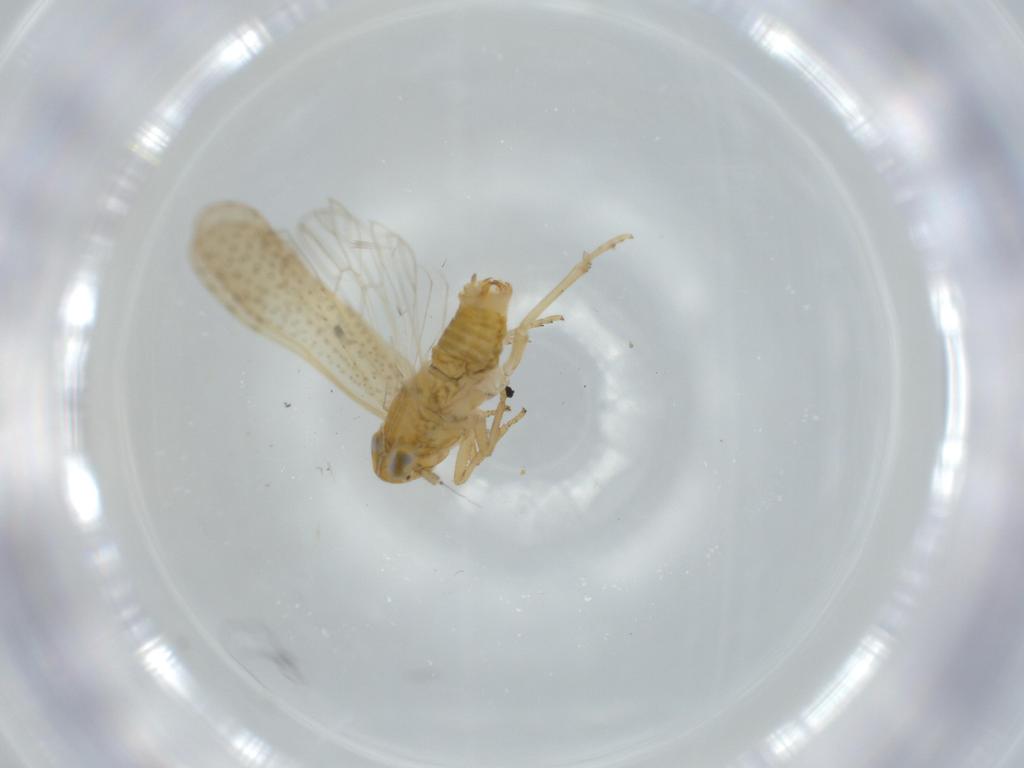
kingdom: Animalia
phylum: Arthropoda
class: Insecta
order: Hemiptera
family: Delphacidae
